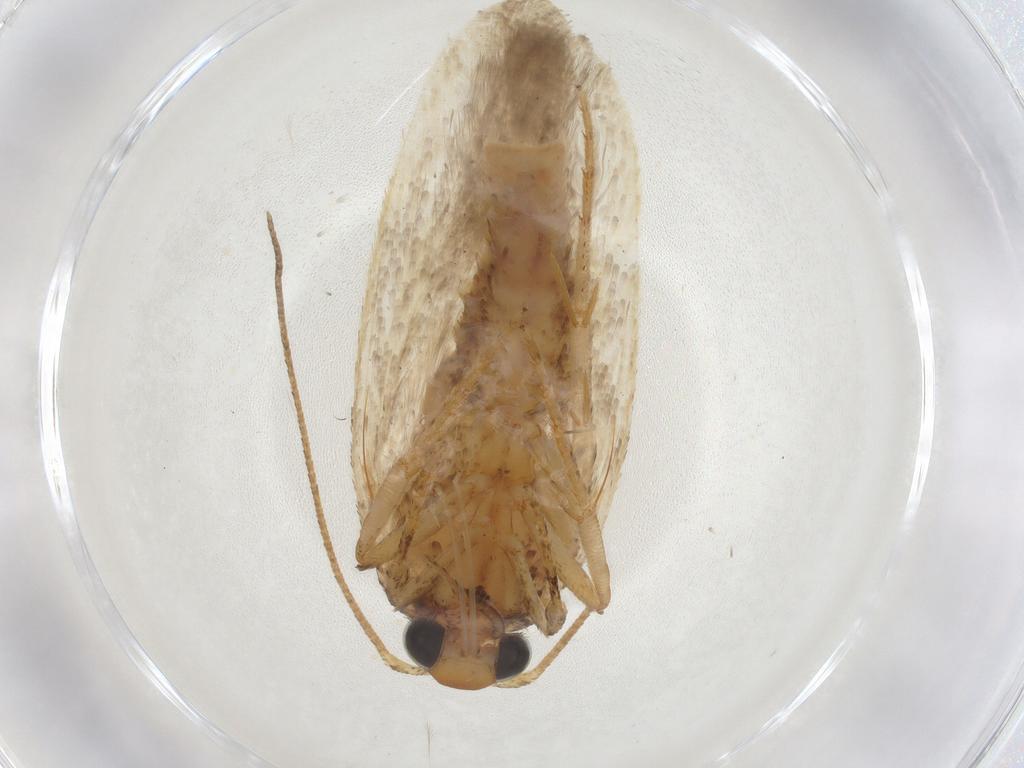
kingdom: Animalia
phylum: Arthropoda
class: Insecta
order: Lepidoptera
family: Gelechiidae
